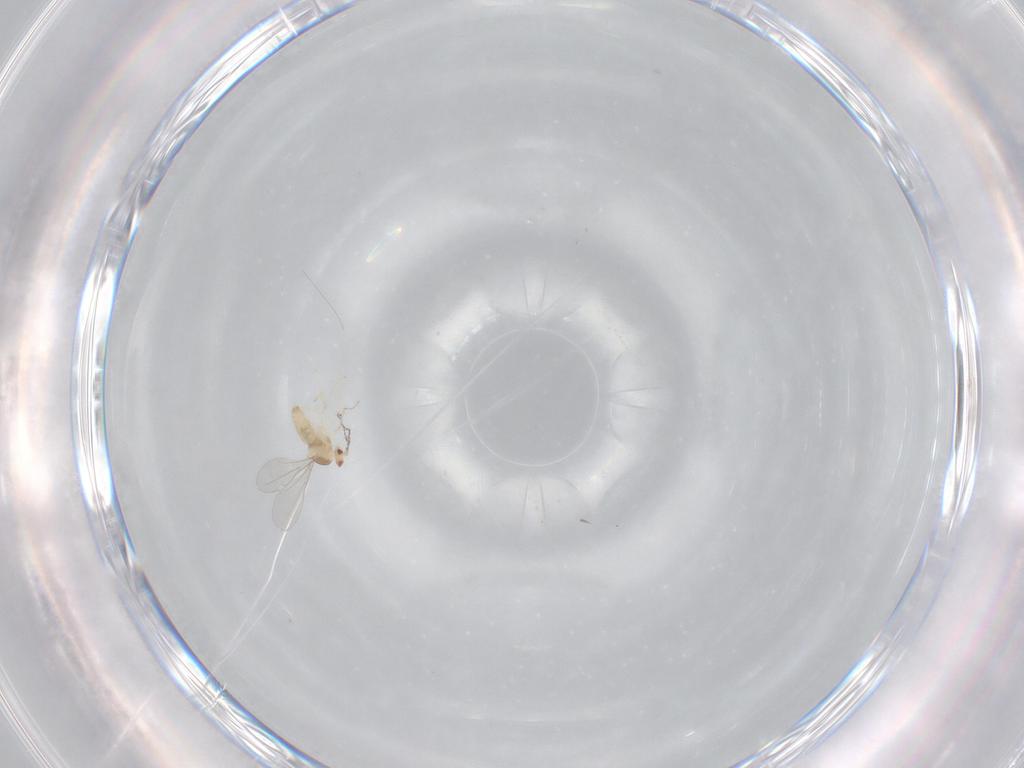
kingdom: Animalia
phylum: Arthropoda
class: Insecta
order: Diptera
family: Cecidomyiidae
